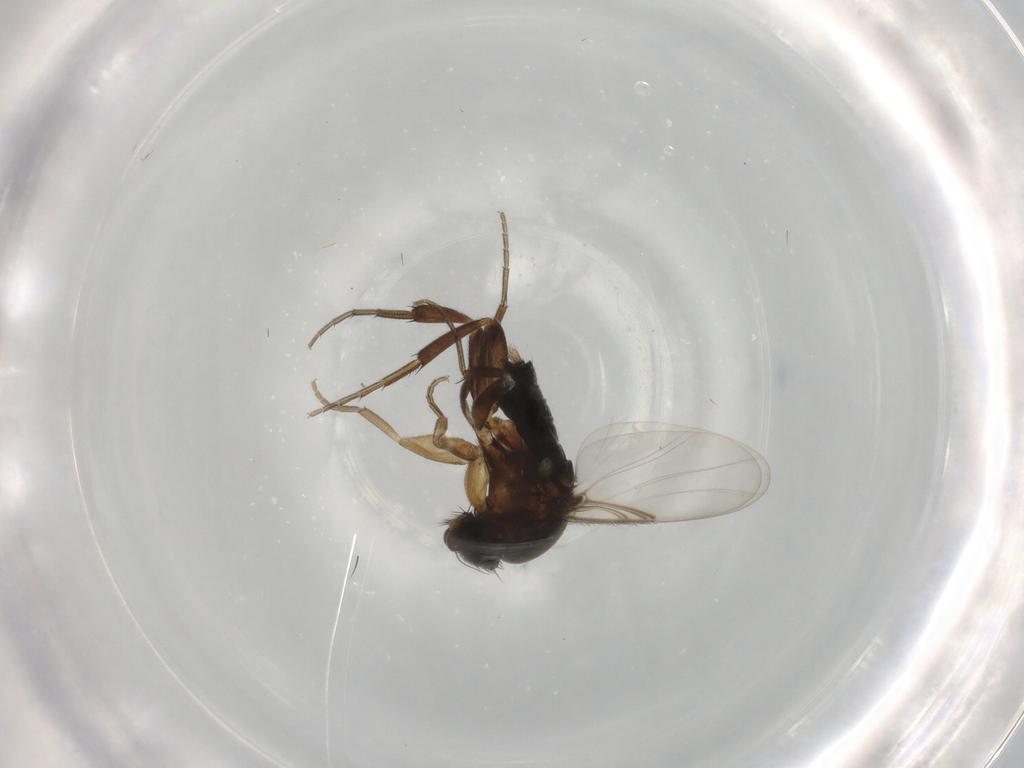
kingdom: Animalia
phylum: Arthropoda
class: Insecta
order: Diptera
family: Phoridae
